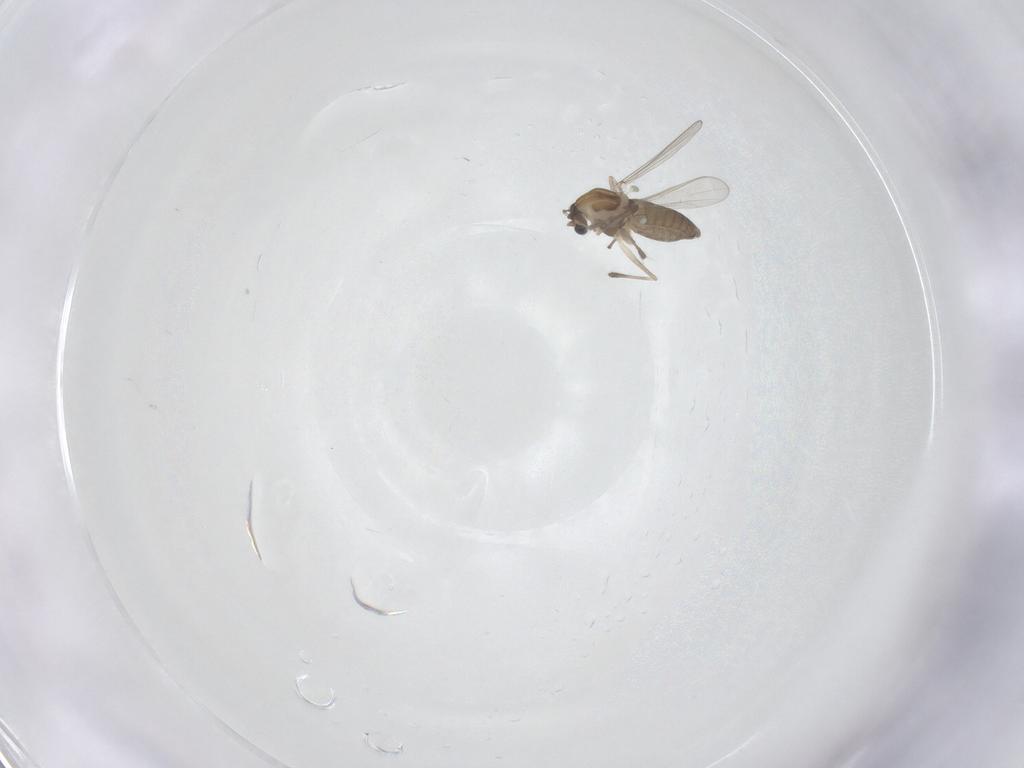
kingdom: Animalia
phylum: Arthropoda
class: Insecta
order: Diptera
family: Chironomidae
